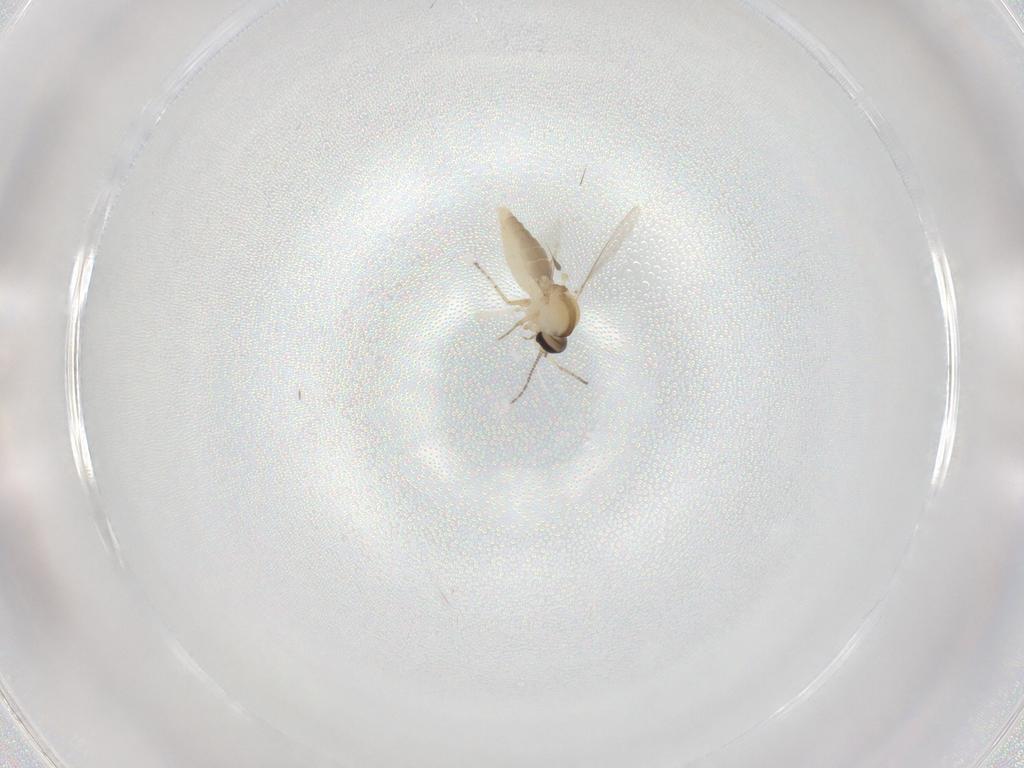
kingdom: Animalia
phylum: Arthropoda
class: Insecta
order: Diptera
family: Ceratopogonidae
